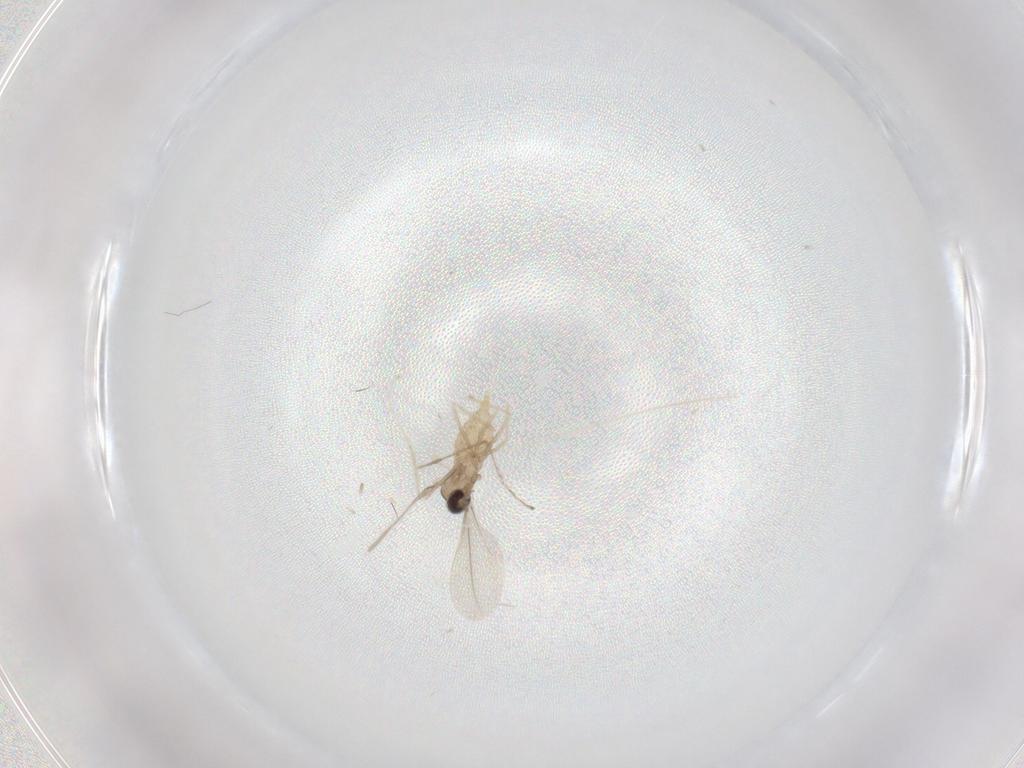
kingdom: Animalia
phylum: Arthropoda
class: Insecta
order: Diptera
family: Cecidomyiidae
